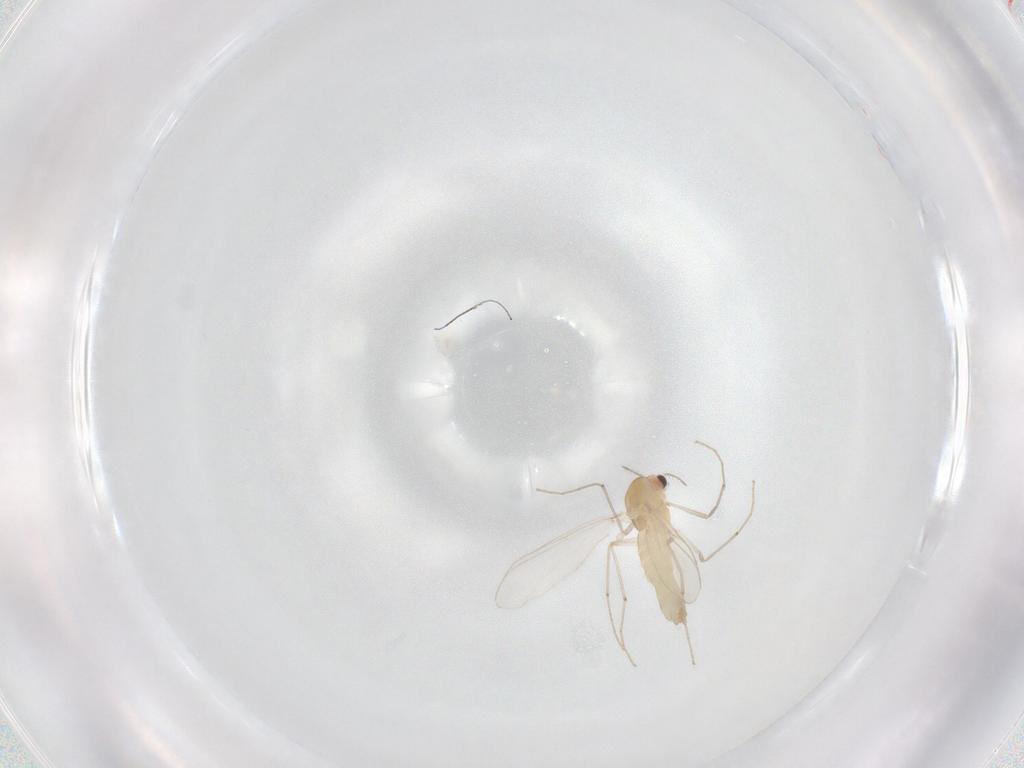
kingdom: Animalia
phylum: Arthropoda
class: Insecta
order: Diptera
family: Chironomidae
